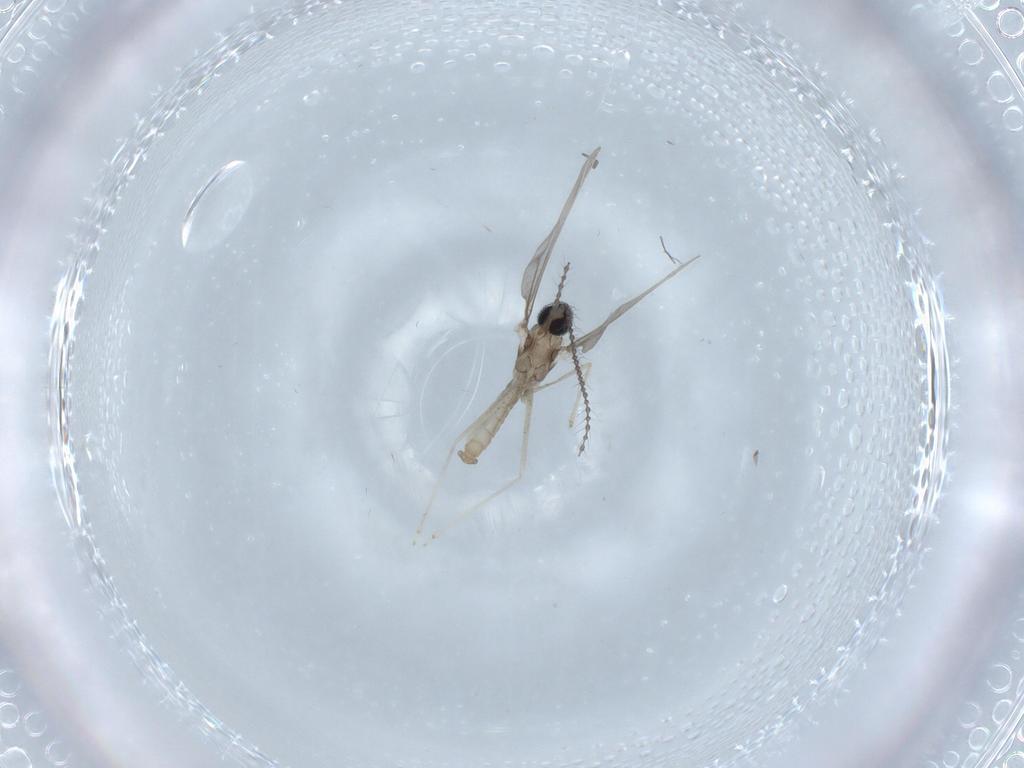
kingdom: Animalia
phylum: Arthropoda
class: Insecta
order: Diptera
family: Cecidomyiidae
